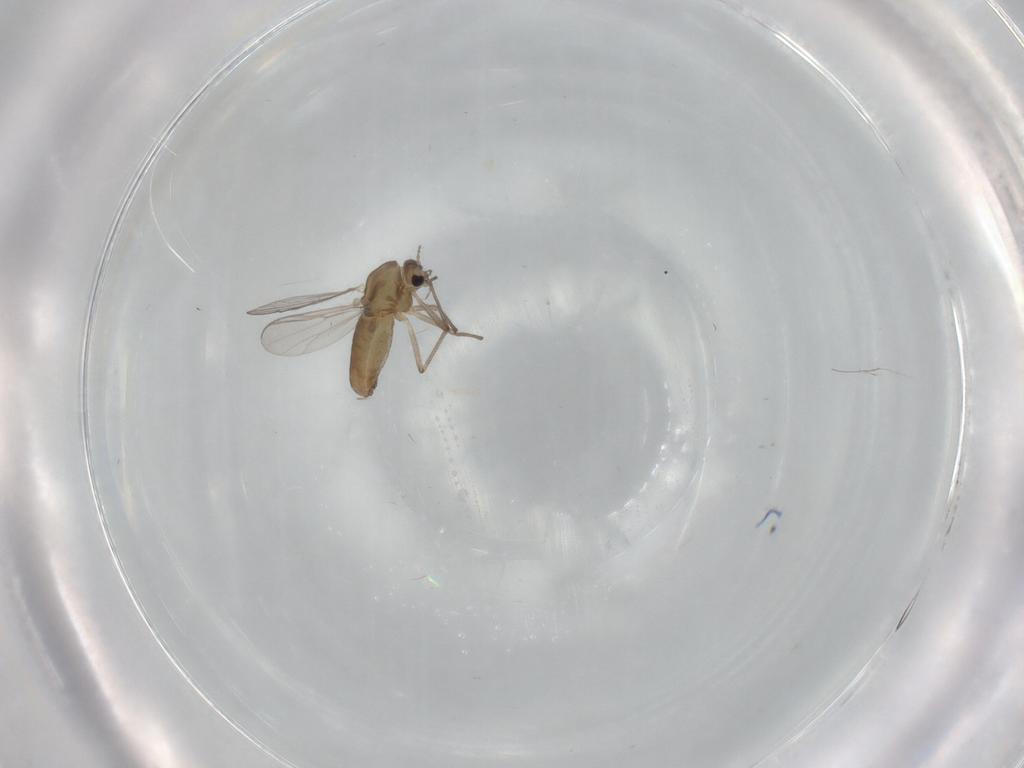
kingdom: Animalia
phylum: Arthropoda
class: Insecta
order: Diptera
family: Chironomidae
